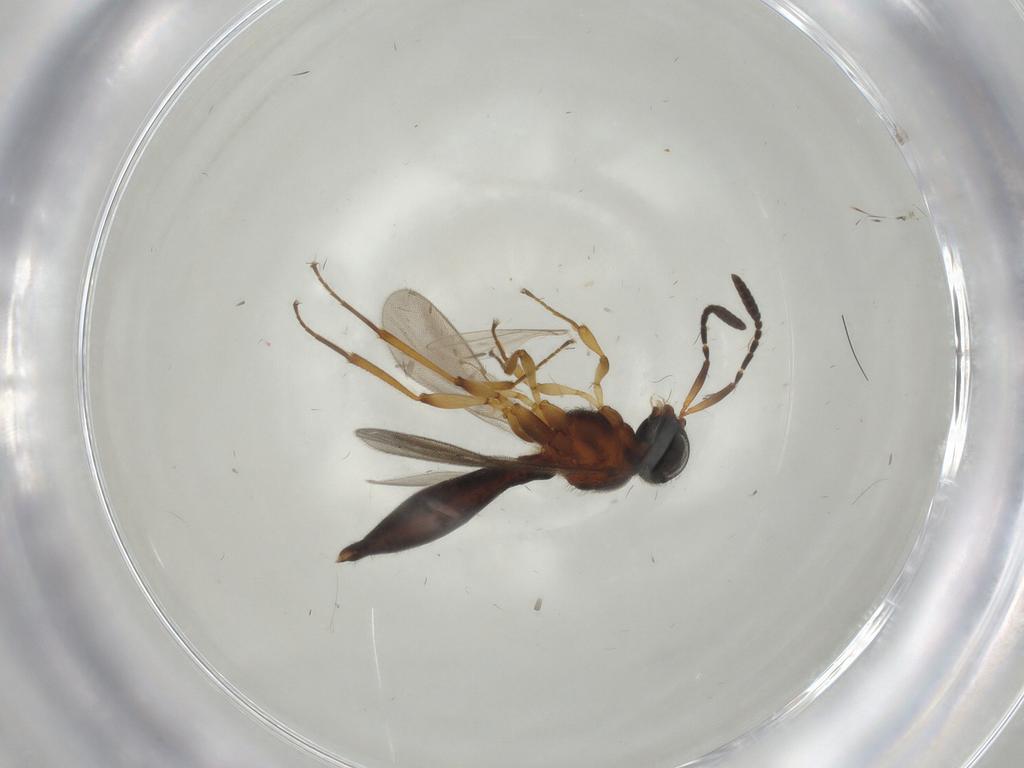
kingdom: Animalia
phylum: Arthropoda
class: Insecta
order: Hymenoptera
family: Scelionidae
